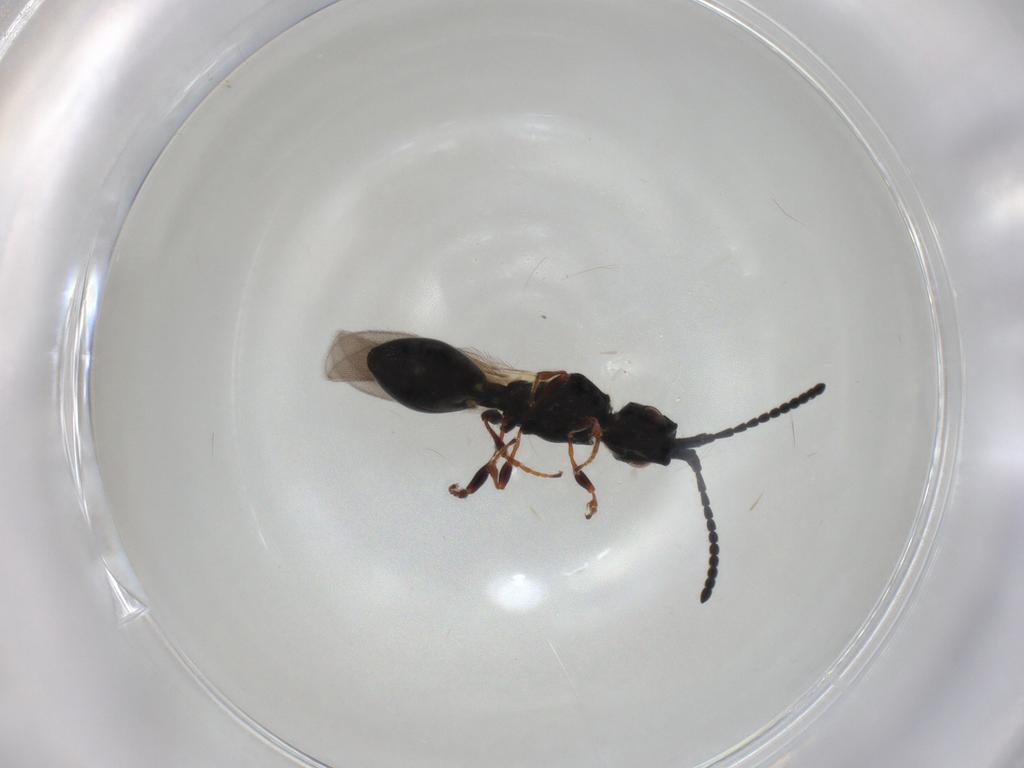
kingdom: Animalia
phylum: Arthropoda
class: Insecta
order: Hymenoptera
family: Diapriidae
